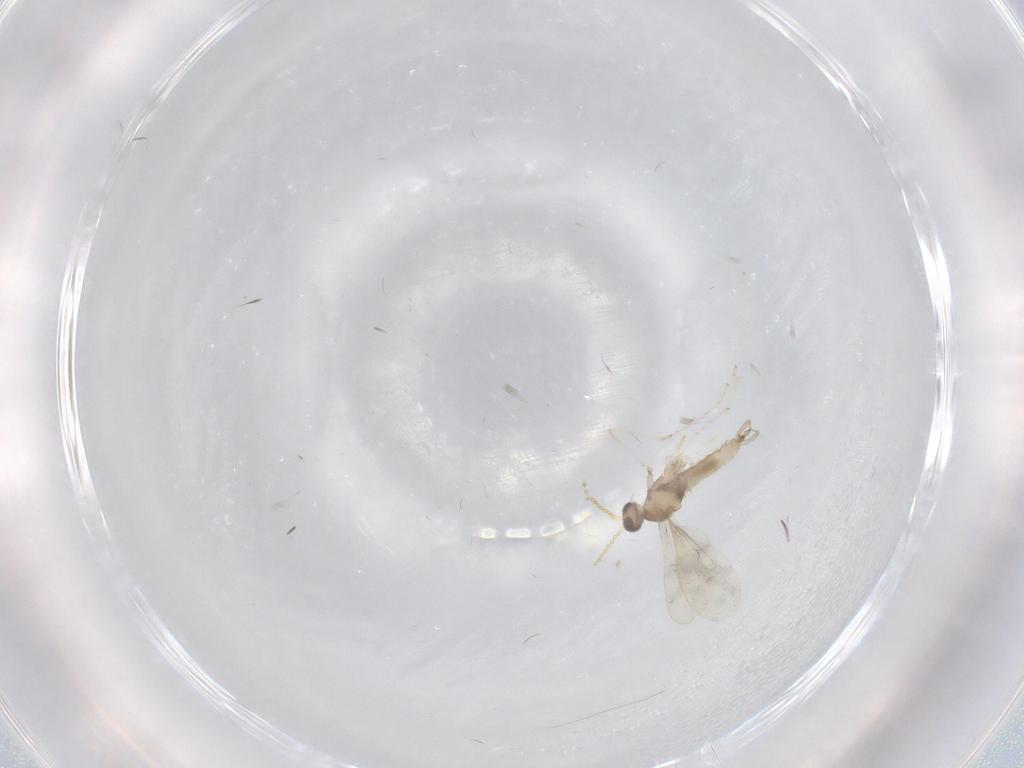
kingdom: Animalia
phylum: Arthropoda
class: Insecta
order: Diptera
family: Cecidomyiidae
